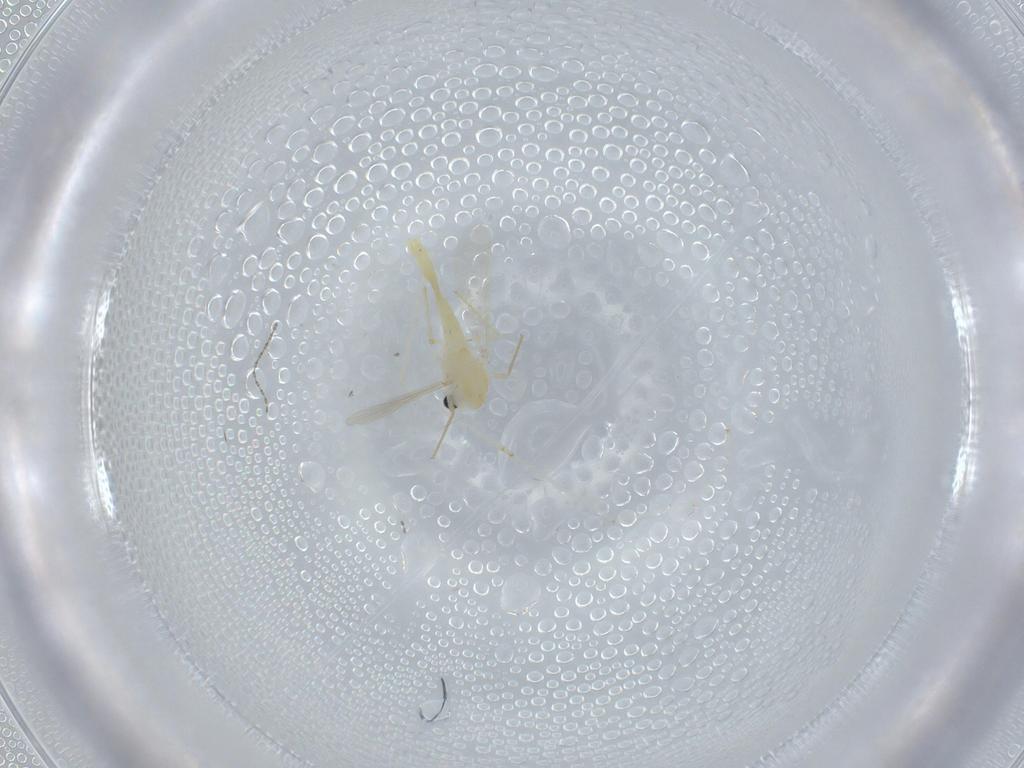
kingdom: Animalia
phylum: Arthropoda
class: Insecta
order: Diptera
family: Chironomidae
